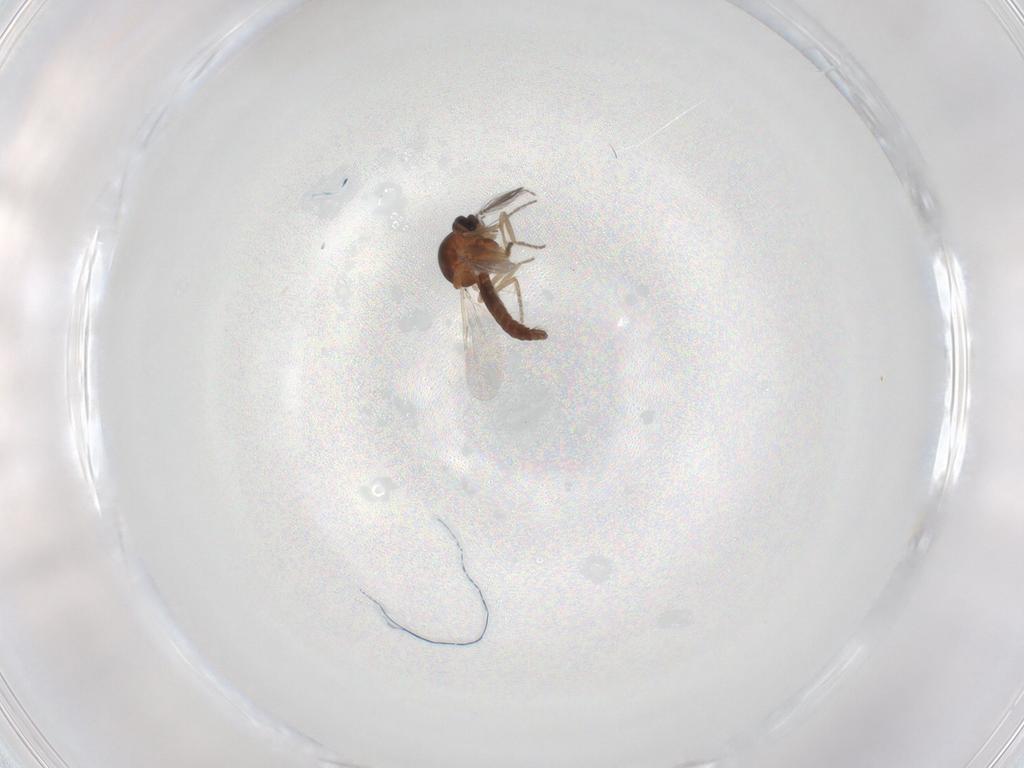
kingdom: Animalia
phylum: Arthropoda
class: Insecta
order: Diptera
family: Ceratopogonidae
